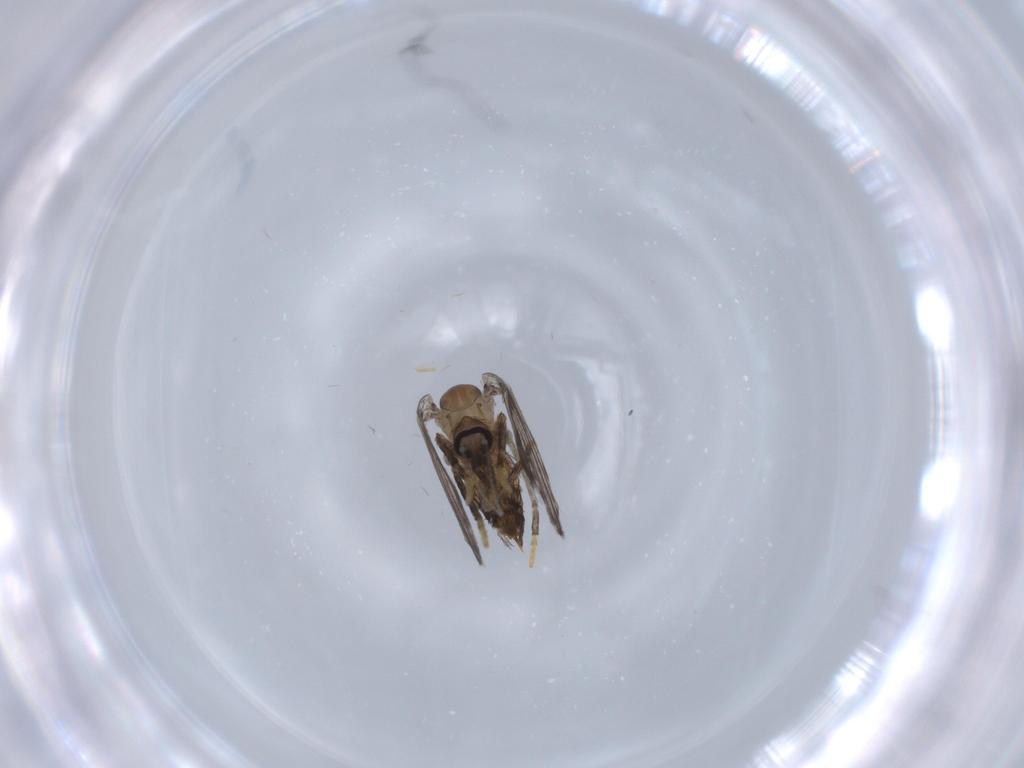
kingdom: Animalia
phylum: Arthropoda
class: Insecta
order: Diptera
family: Psychodidae
